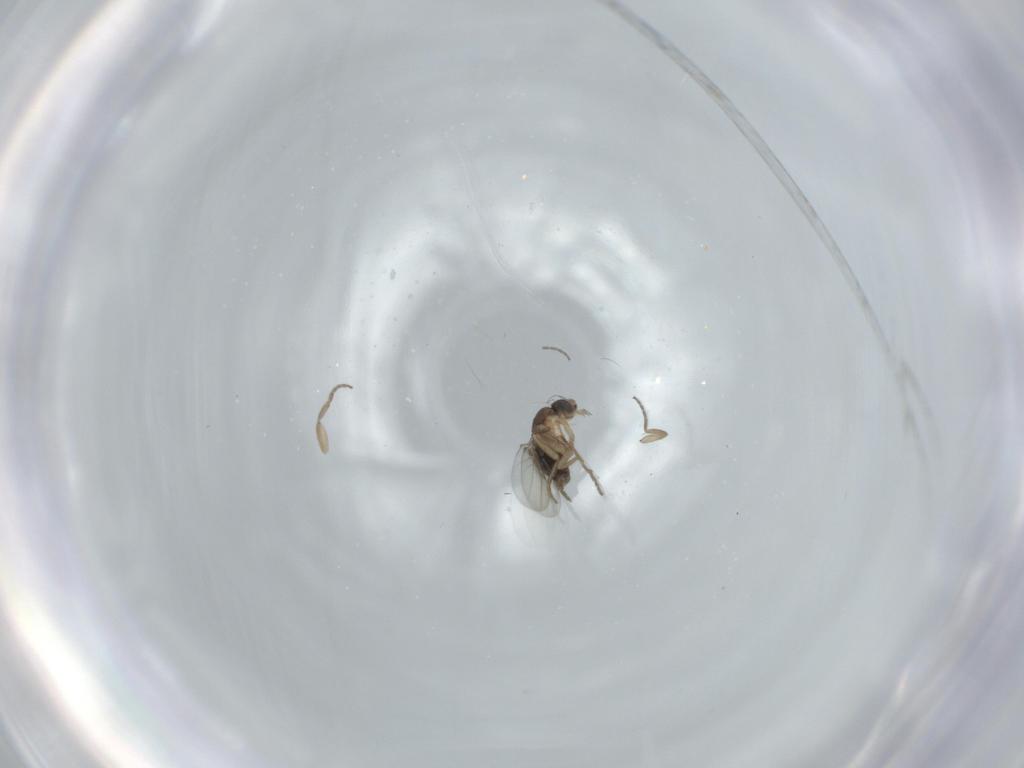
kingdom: Animalia
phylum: Arthropoda
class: Insecta
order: Diptera
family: Phoridae
